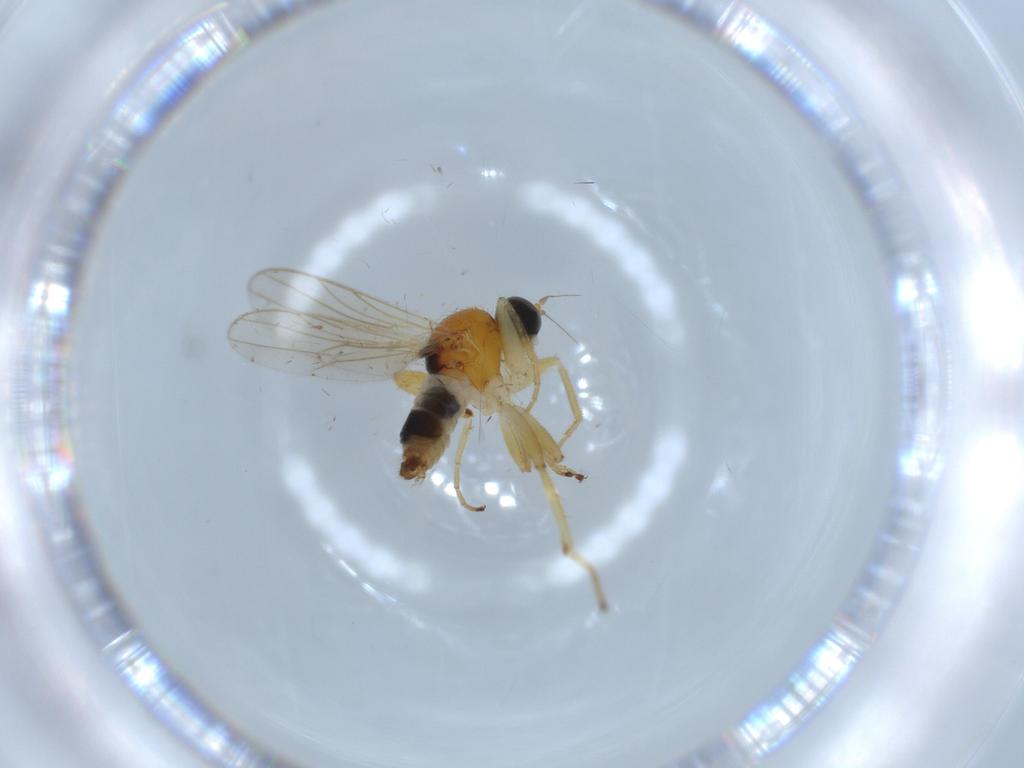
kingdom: Animalia
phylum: Arthropoda
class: Insecta
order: Diptera
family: Hybotidae
